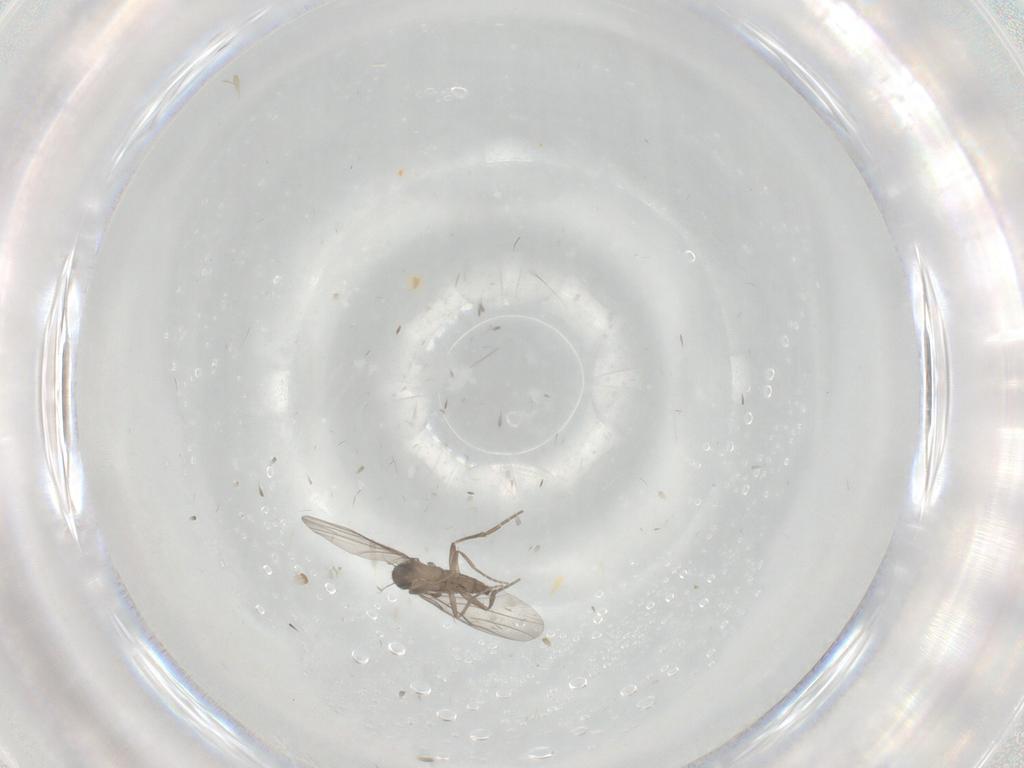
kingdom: Animalia
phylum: Arthropoda
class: Insecta
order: Diptera
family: Phoridae
